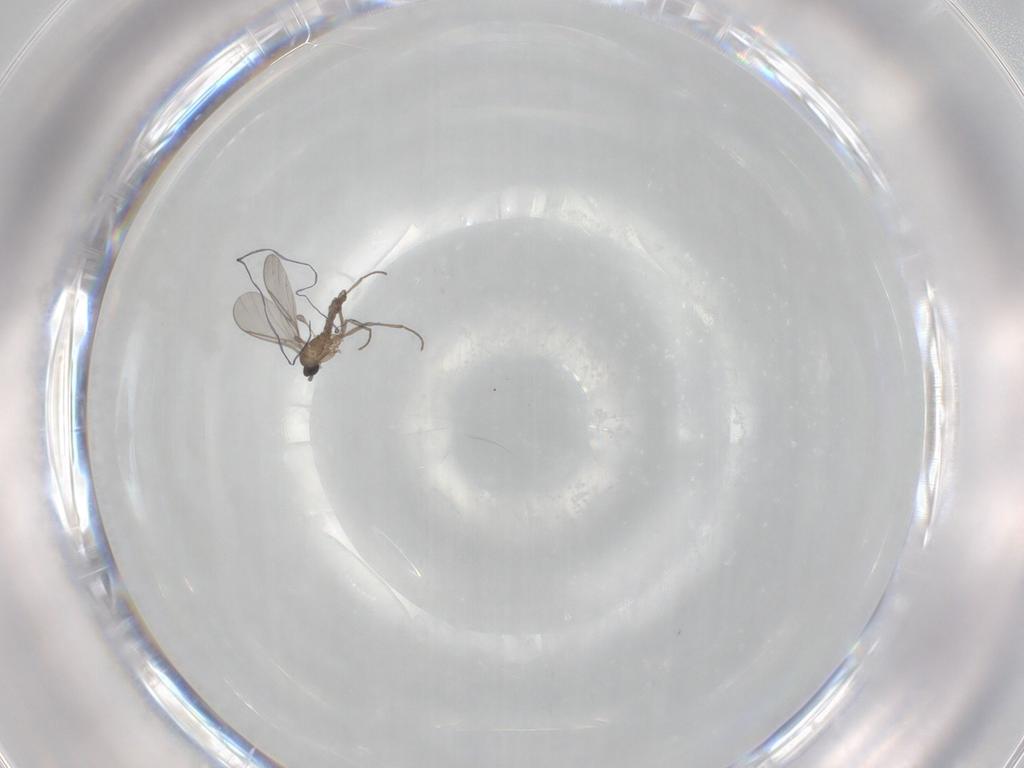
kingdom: Animalia
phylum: Arthropoda
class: Insecta
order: Diptera
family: Sciaridae
